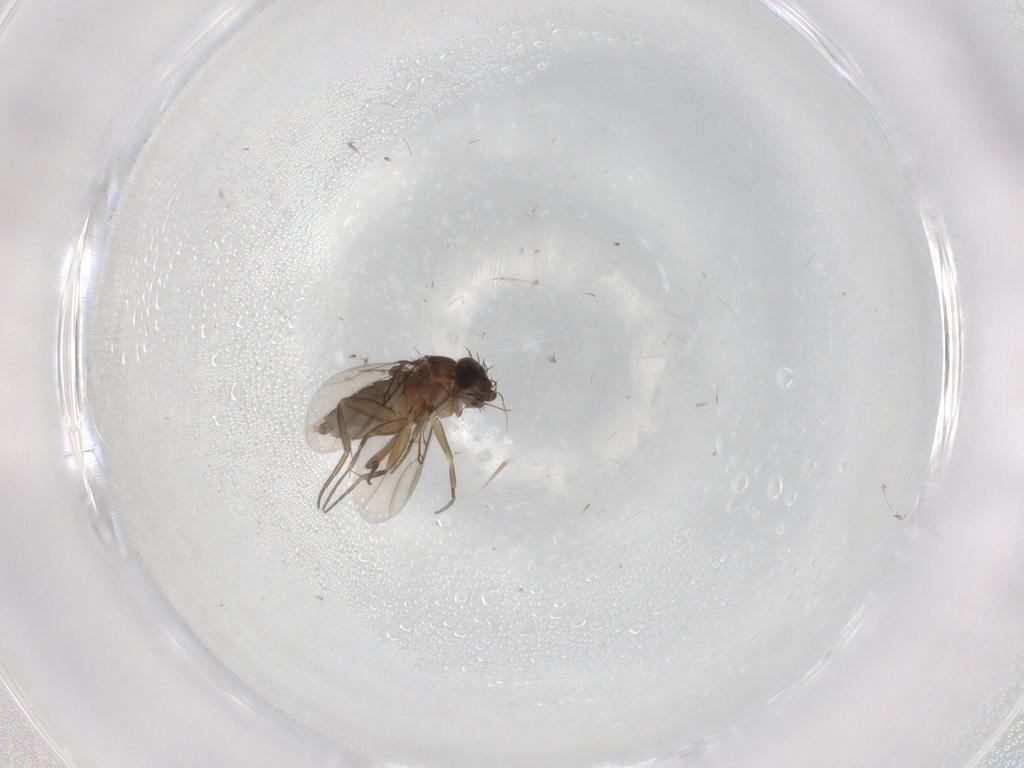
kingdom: Animalia
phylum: Arthropoda
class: Insecta
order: Diptera
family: Phoridae
